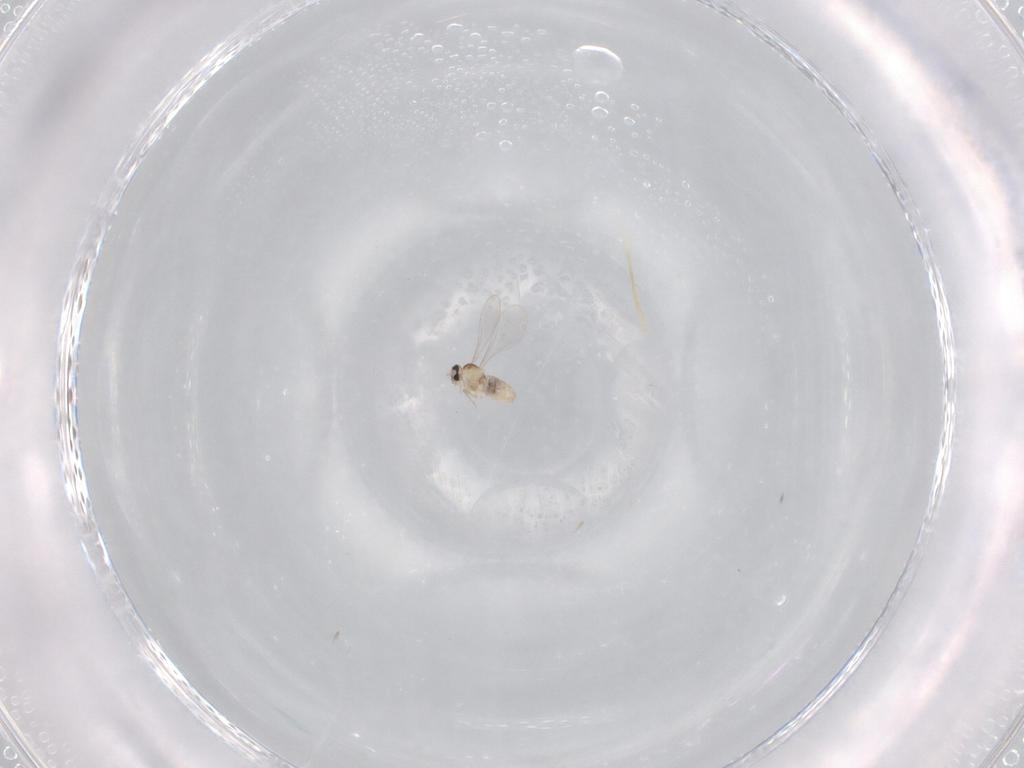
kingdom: Animalia
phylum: Arthropoda
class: Insecta
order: Diptera
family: Cecidomyiidae
